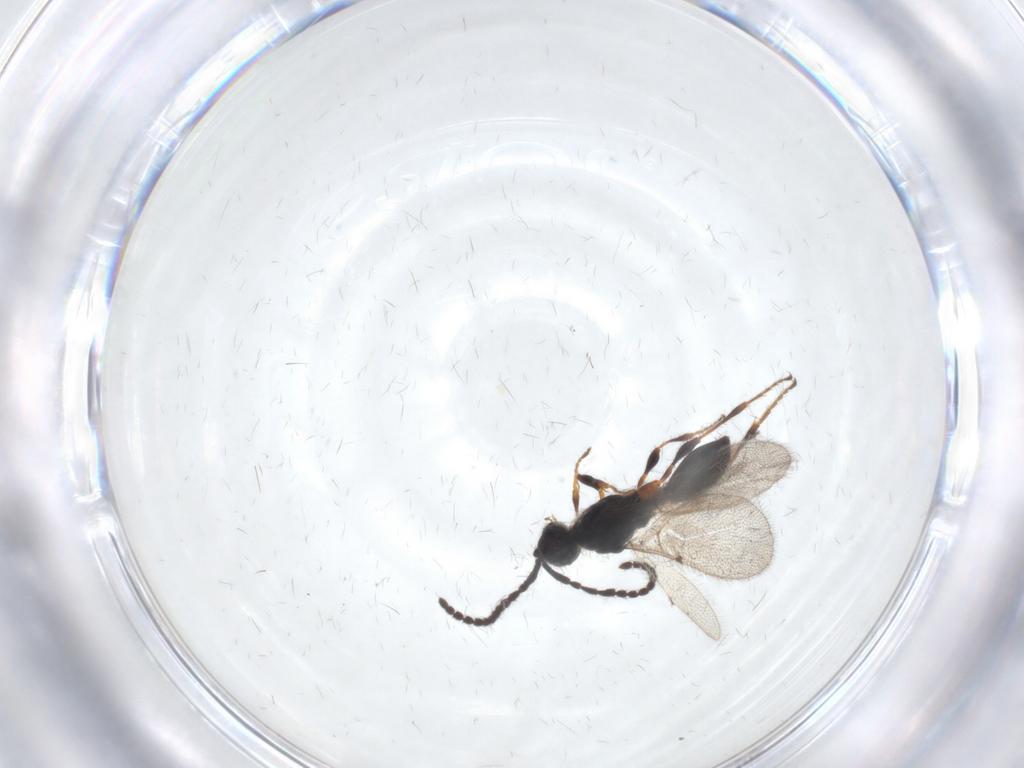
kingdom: Animalia
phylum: Arthropoda
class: Insecta
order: Hymenoptera
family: Diapriidae
